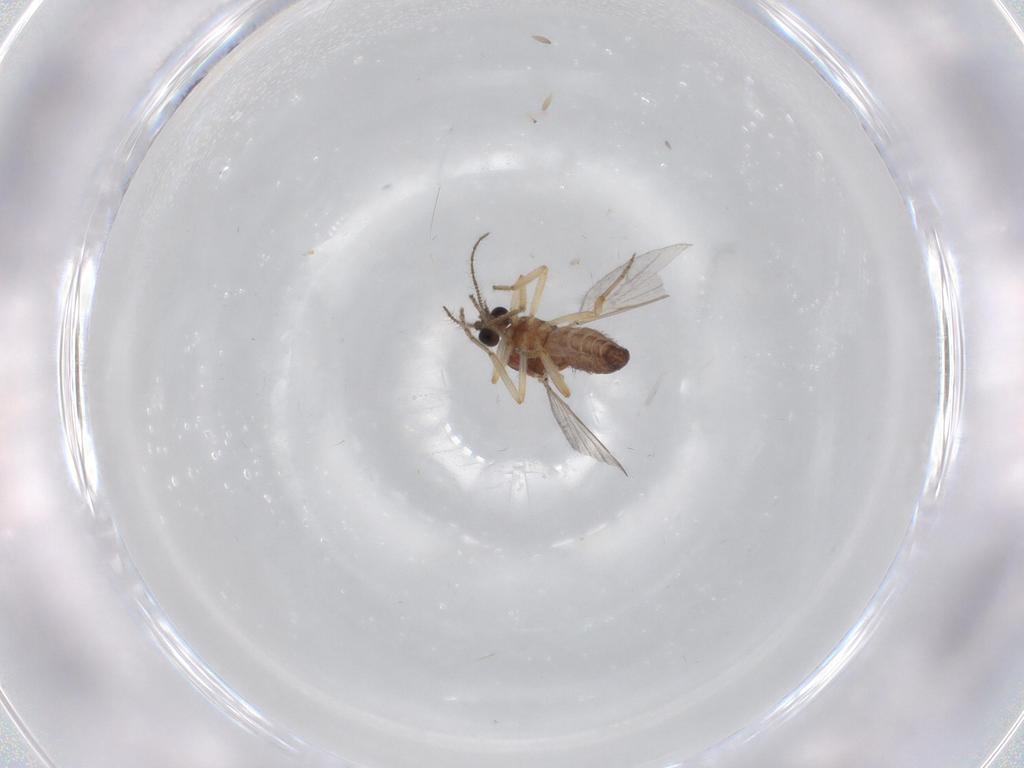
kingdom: Animalia
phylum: Arthropoda
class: Insecta
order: Diptera
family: Ceratopogonidae
